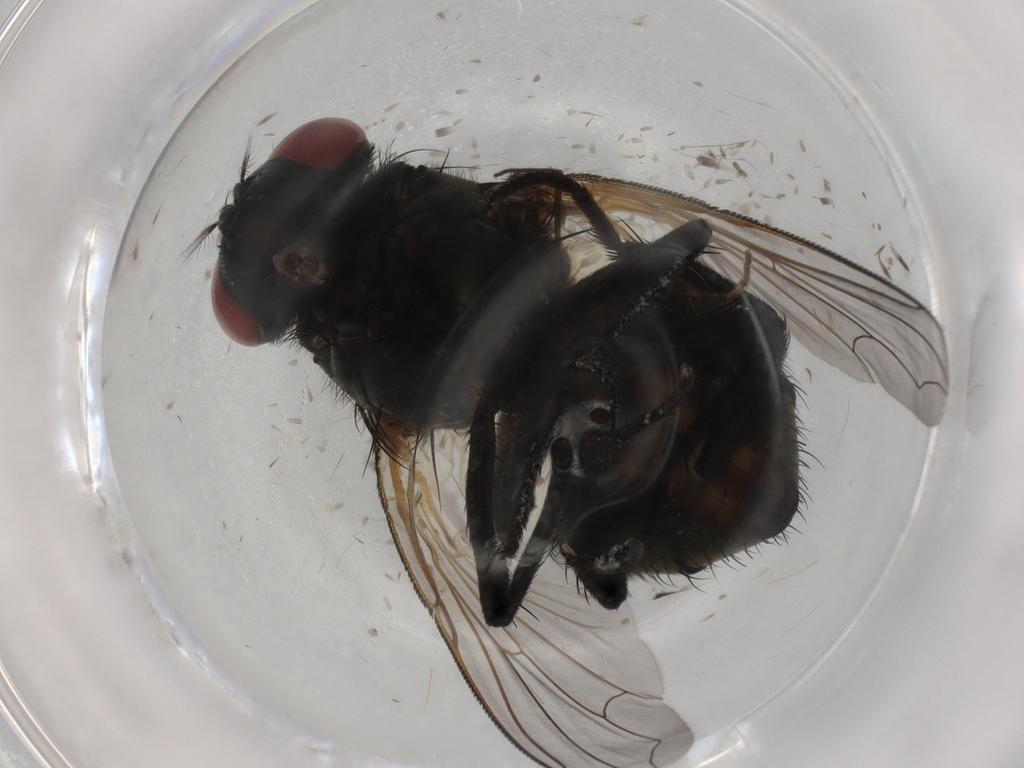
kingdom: Animalia
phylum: Arthropoda
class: Insecta
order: Diptera
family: Muscidae
